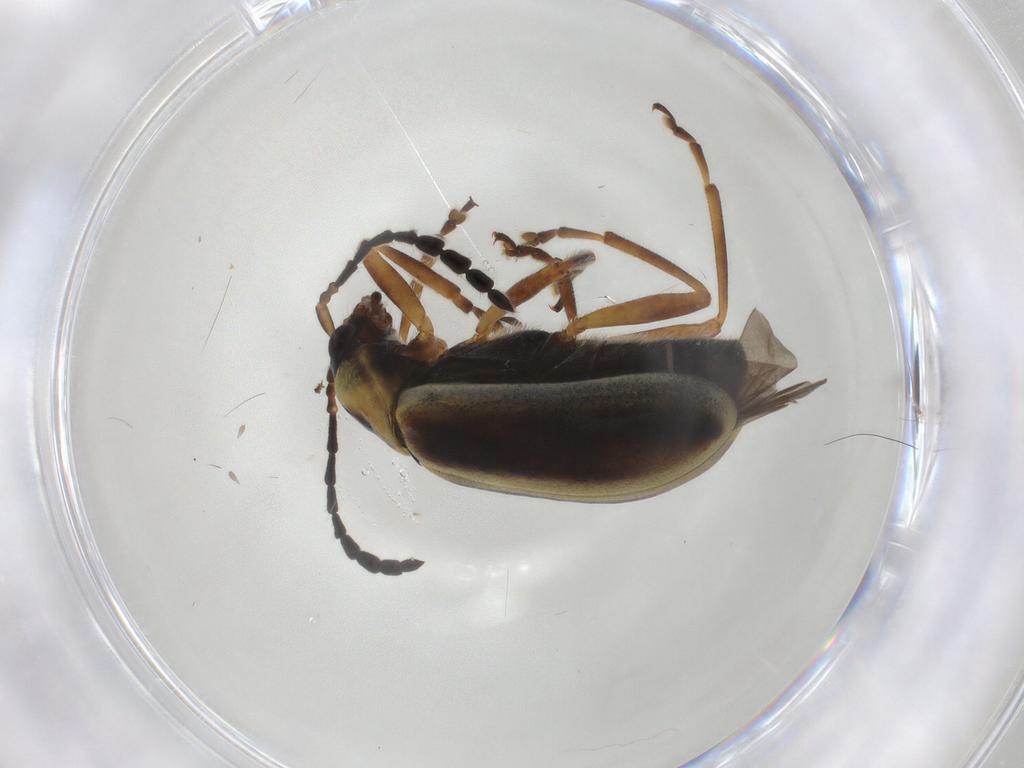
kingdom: Animalia
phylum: Arthropoda
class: Insecta
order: Coleoptera
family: Chrysomelidae
